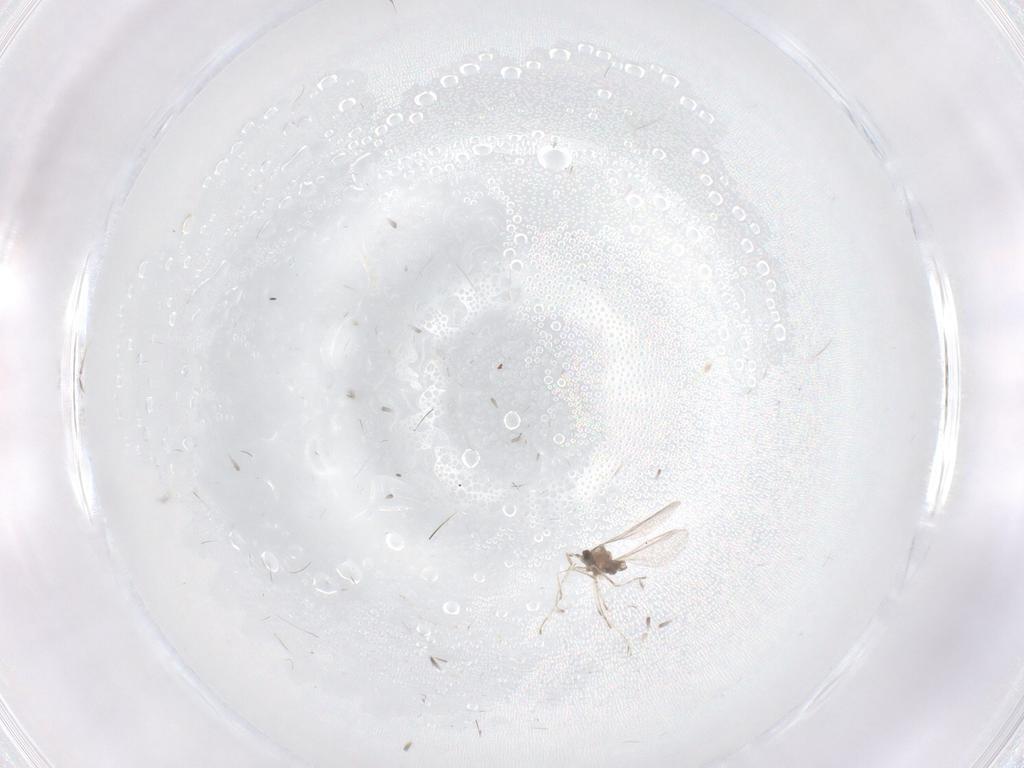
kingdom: Animalia
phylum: Arthropoda
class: Insecta
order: Diptera
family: Cecidomyiidae
